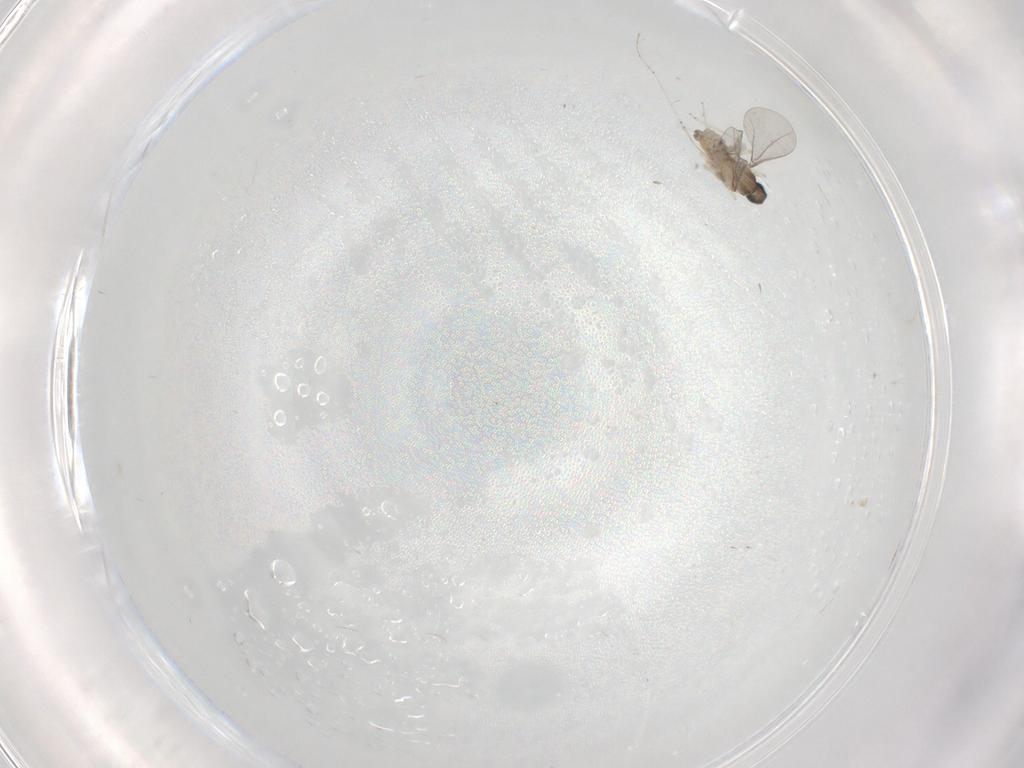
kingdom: Animalia
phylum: Arthropoda
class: Insecta
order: Diptera
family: Cecidomyiidae
